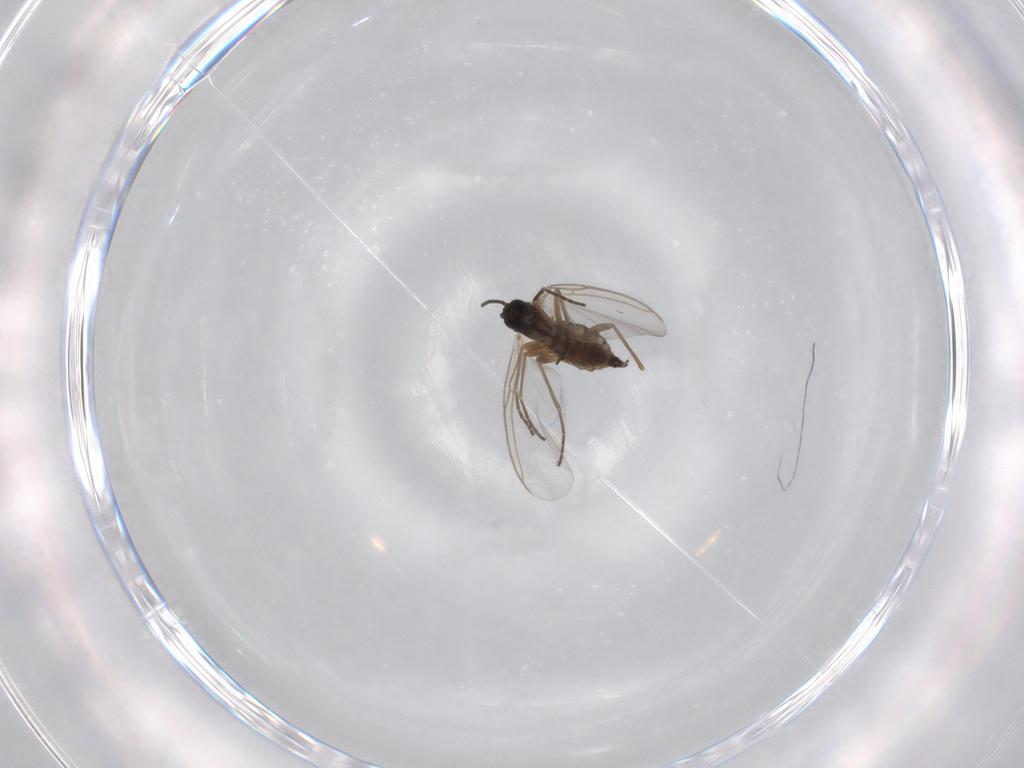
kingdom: Animalia
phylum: Arthropoda
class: Insecta
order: Diptera
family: Sciaridae
